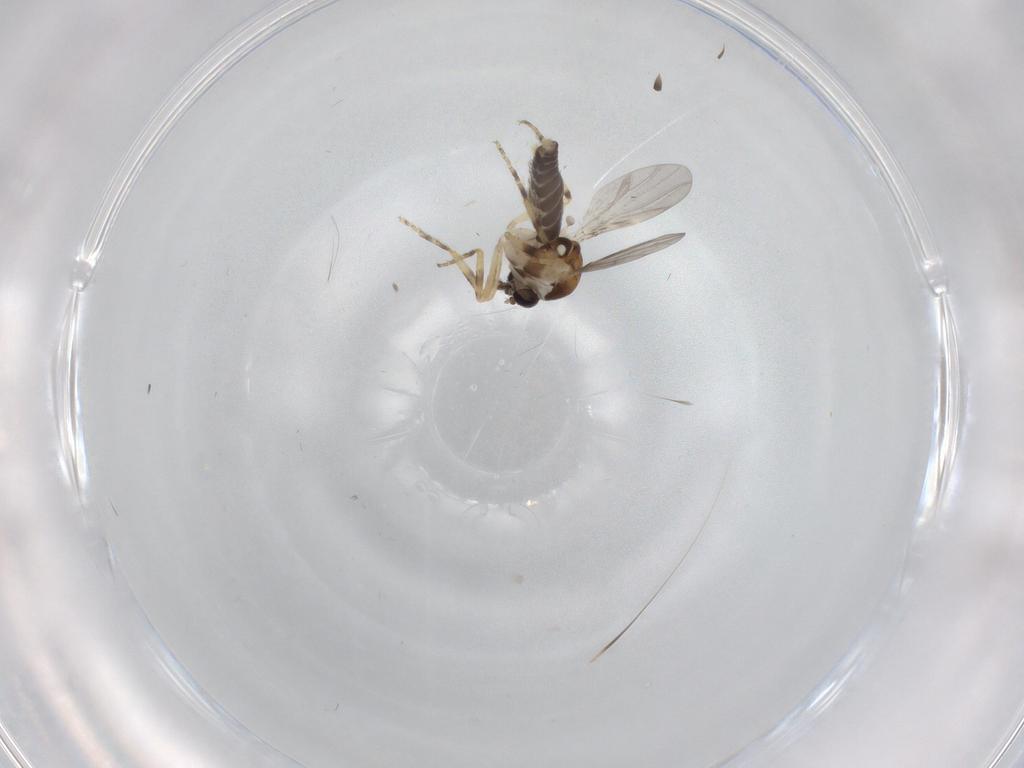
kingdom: Animalia
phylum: Arthropoda
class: Insecta
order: Diptera
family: Ceratopogonidae
